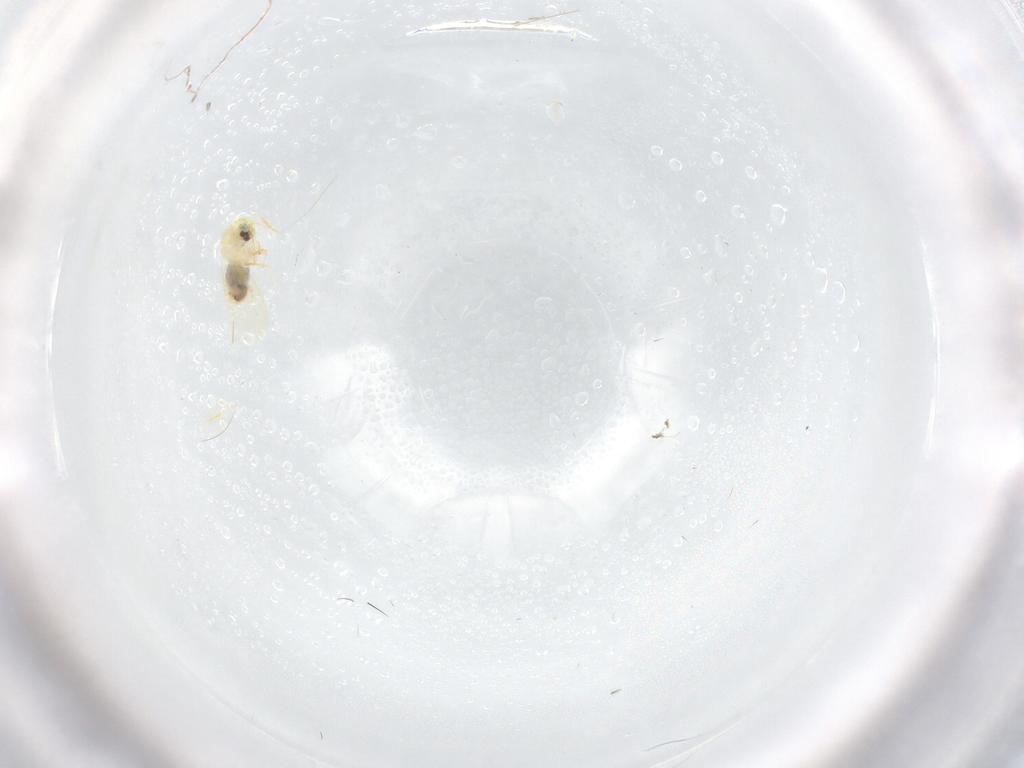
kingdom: Animalia
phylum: Arthropoda
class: Insecta
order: Hemiptera
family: Aleyrodidae
